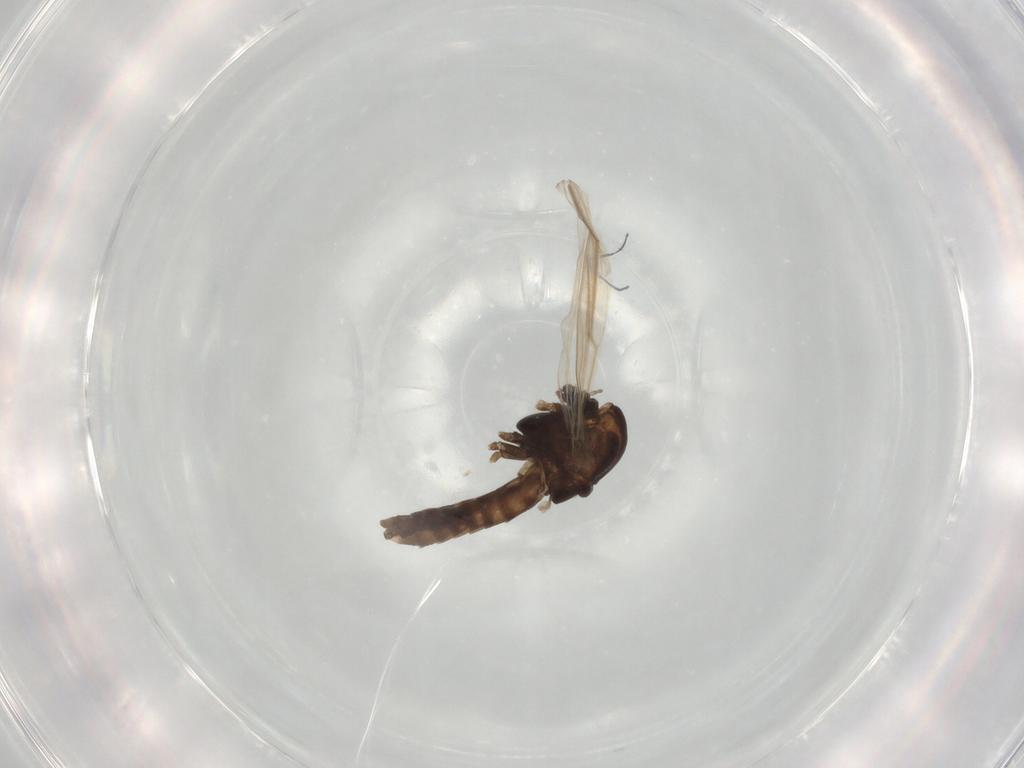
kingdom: Animalia
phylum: Arthropoda
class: Insecta
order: Diptera
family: Chironomidae
